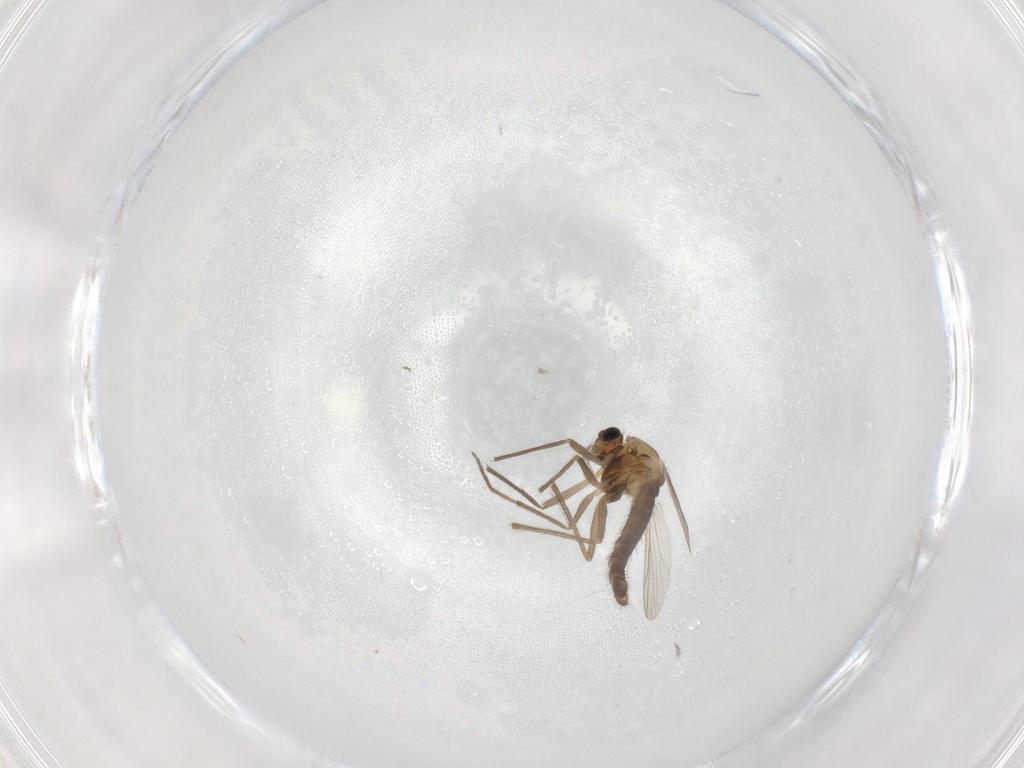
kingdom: Animalia
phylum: Arthropoda
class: Insecta
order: Diptera
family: Chironomidae
